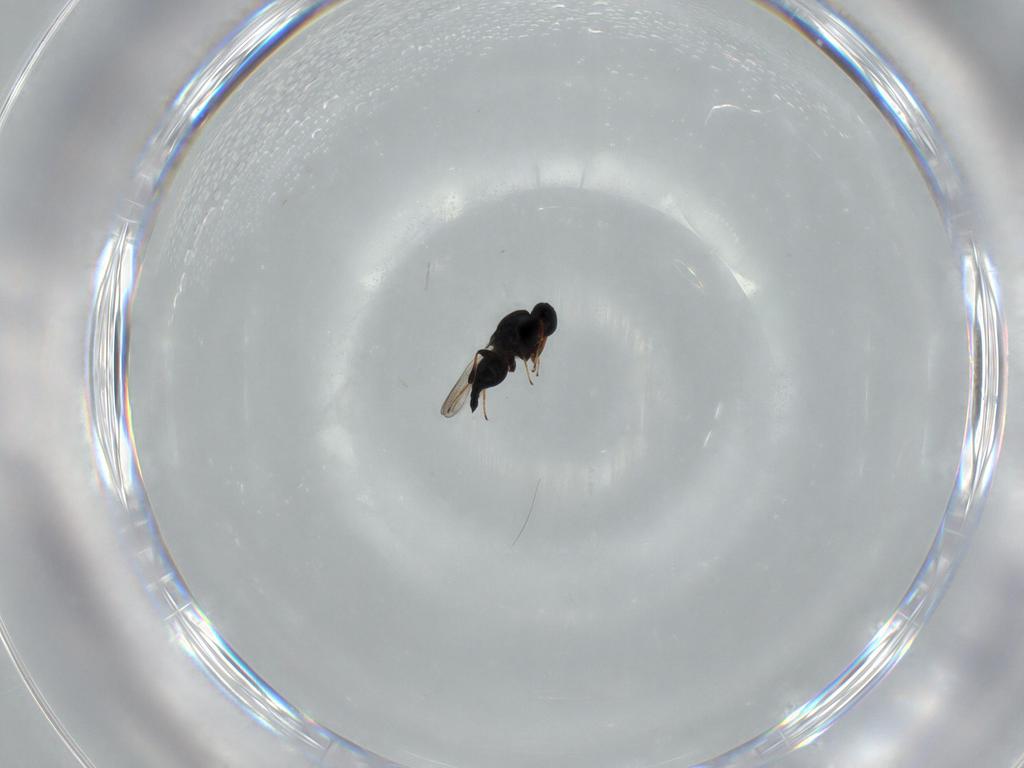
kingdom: Animalia
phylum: Arthropoda
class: Insecta
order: Hymenoptera
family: Platygastridae
